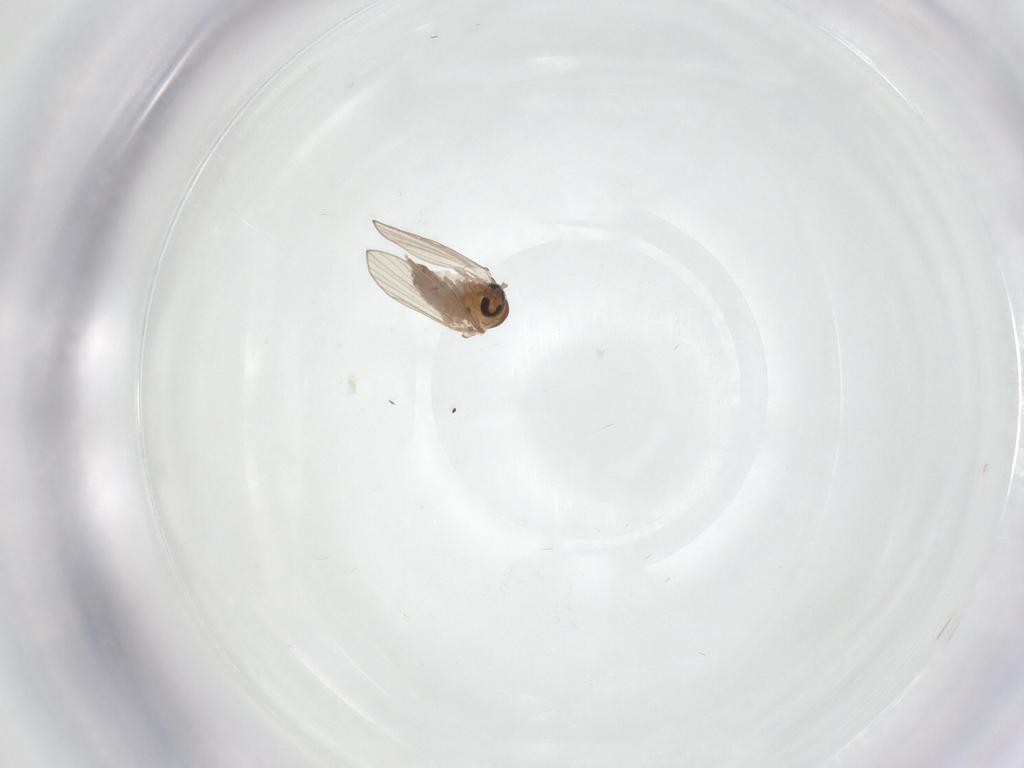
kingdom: Animalia
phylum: Arthropoda
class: Insecta
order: Diptera
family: Psychodidae
